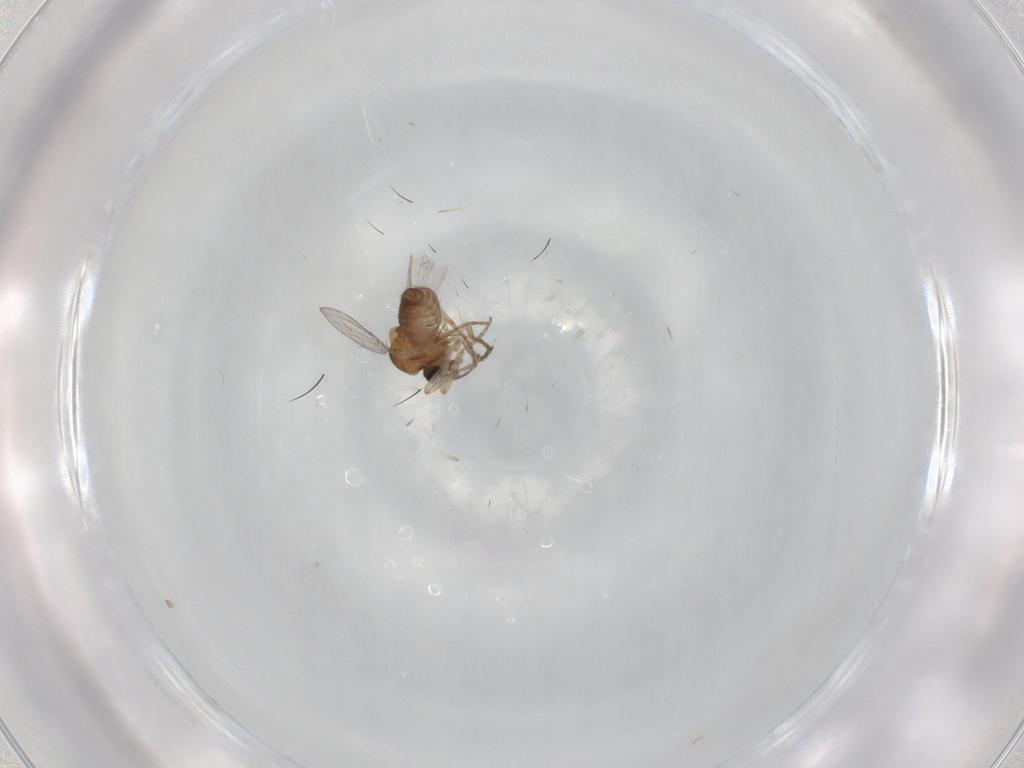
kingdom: Animalia
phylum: Arthropoda
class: Insecta
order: Diptera
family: Ceratopogonidae
